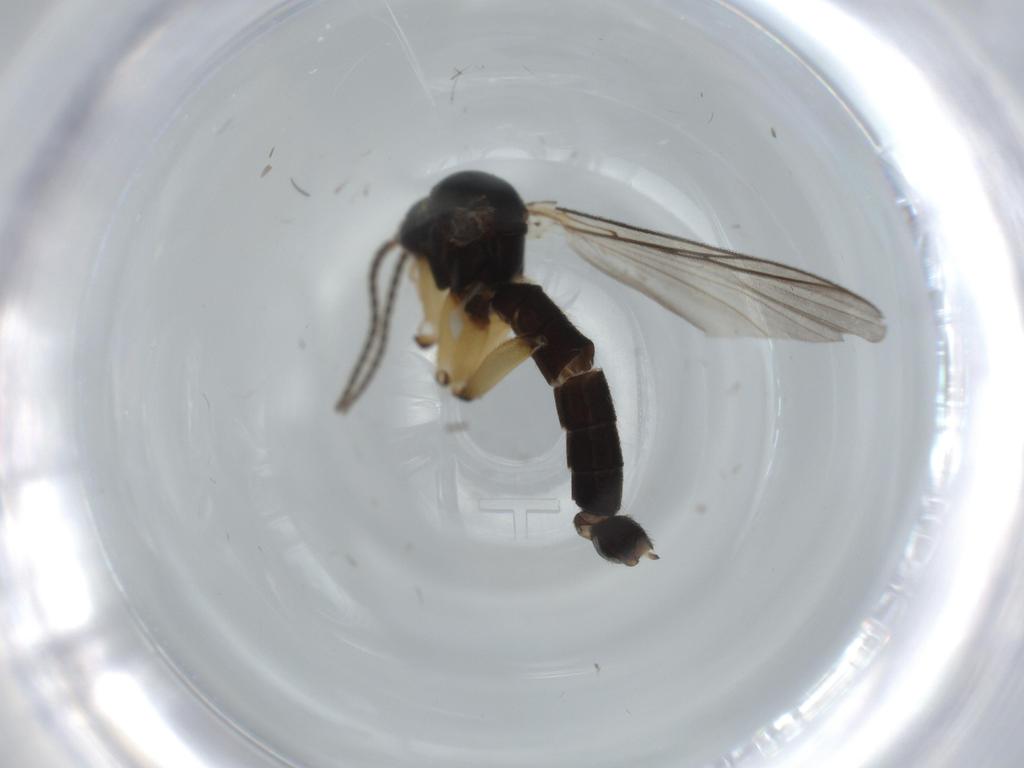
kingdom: Animalia
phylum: Arthropoda
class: Insecta
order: Diptera
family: Mycetophilidae
